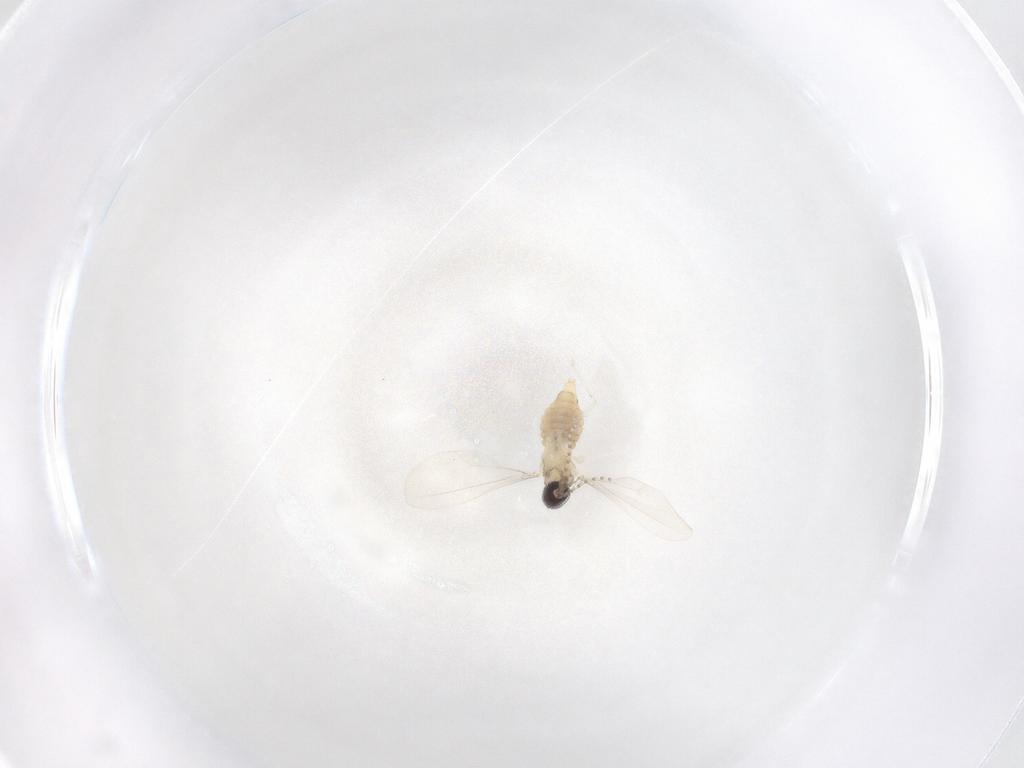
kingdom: Animalia
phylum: Arthropoda
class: Insecta
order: Diptera
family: Cecidomyiidae
